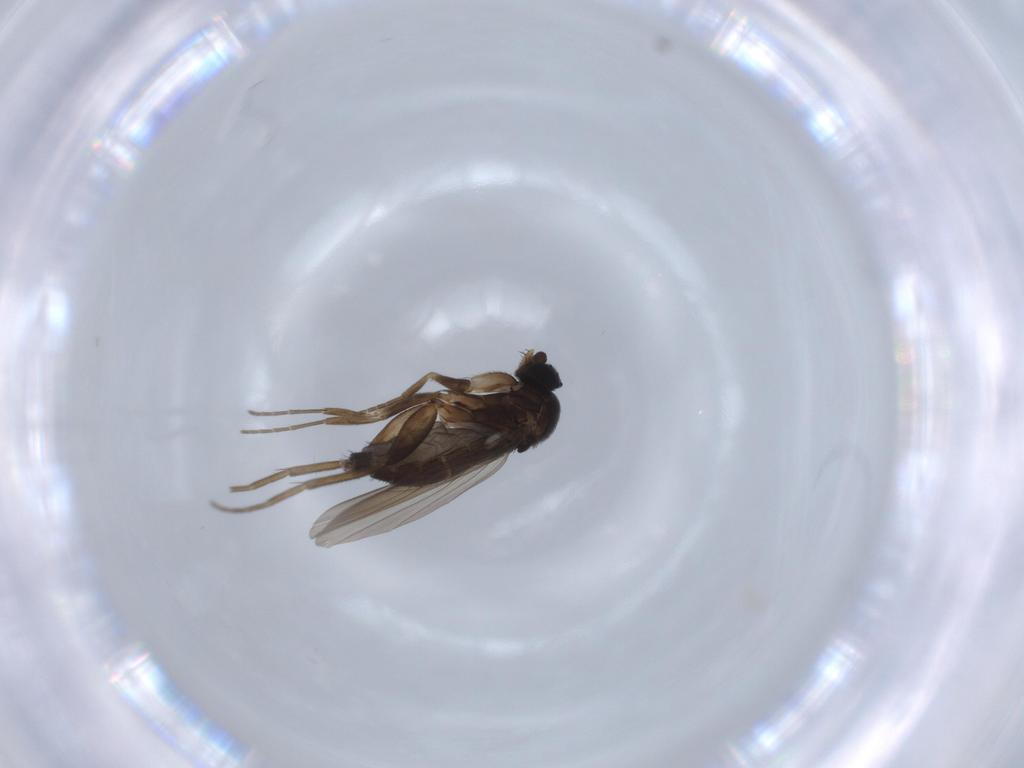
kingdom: Animalia
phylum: Arthropoda
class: Insecta
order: Diptera
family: Phoridae
